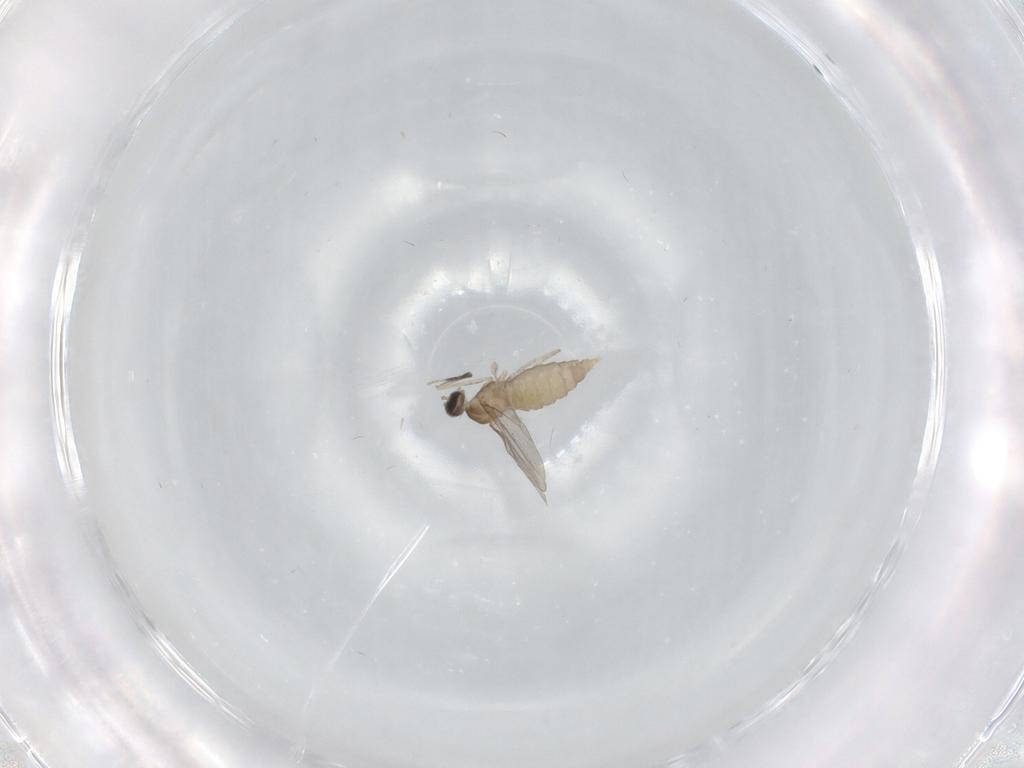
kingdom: Animalia
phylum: Arthropoda
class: Insecta
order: Diptera
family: Cecidomyiidae
